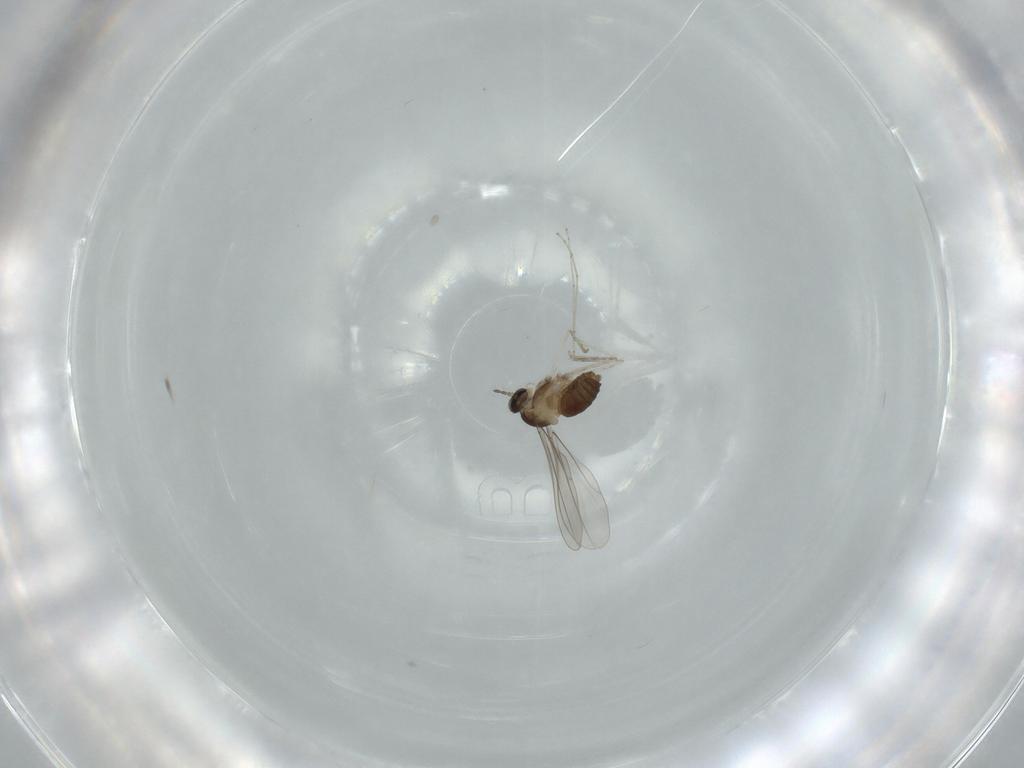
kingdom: Animalia
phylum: Arthropoda
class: Insecta
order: Diptera
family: Cecidomyiidae
